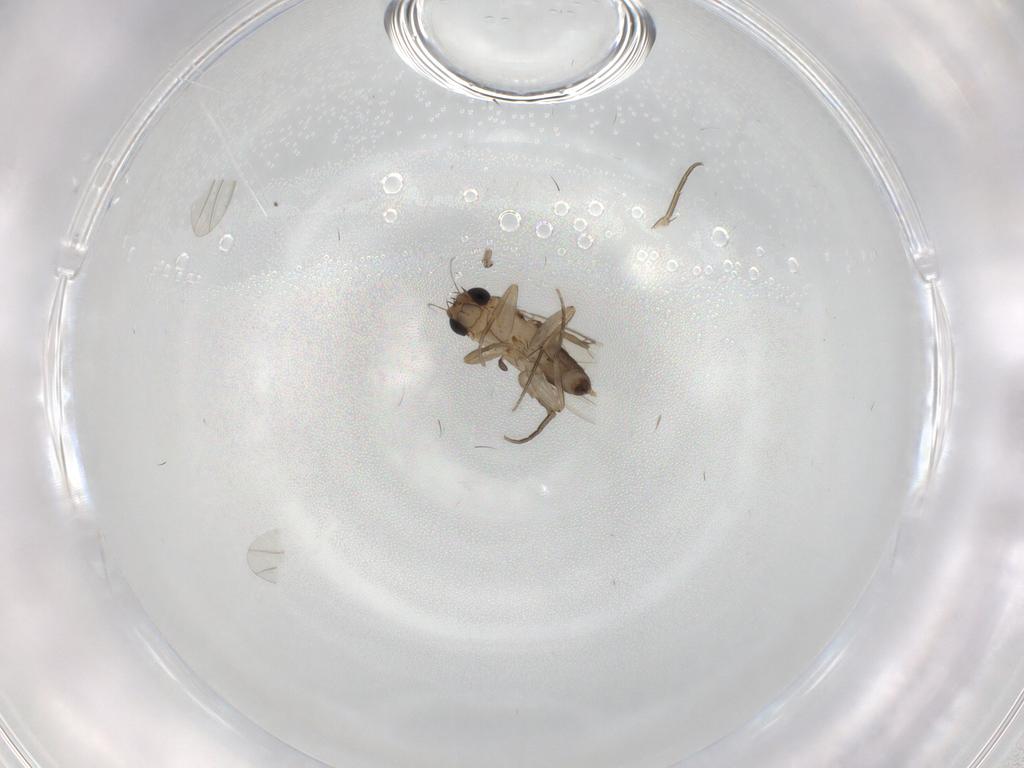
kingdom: Animalia
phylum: Arthropoda
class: Insecta
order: Diptera
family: Phoridae
